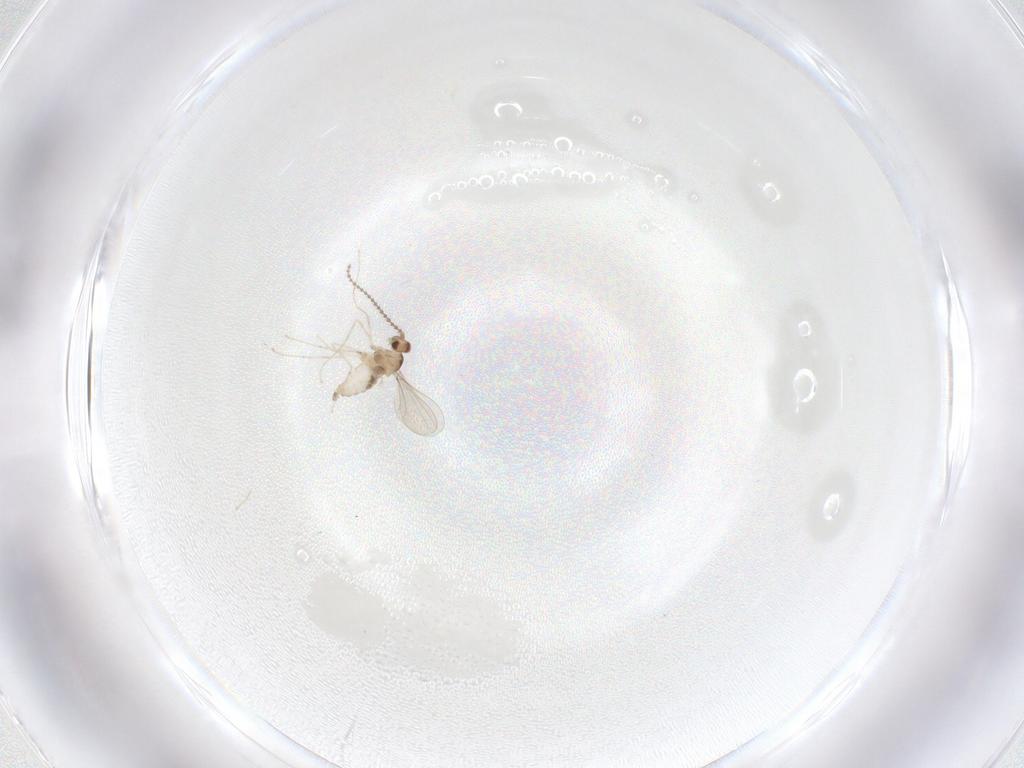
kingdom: Animalia
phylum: Arthropoda
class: Insecta
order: Diptera
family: Cecidomyiidae
